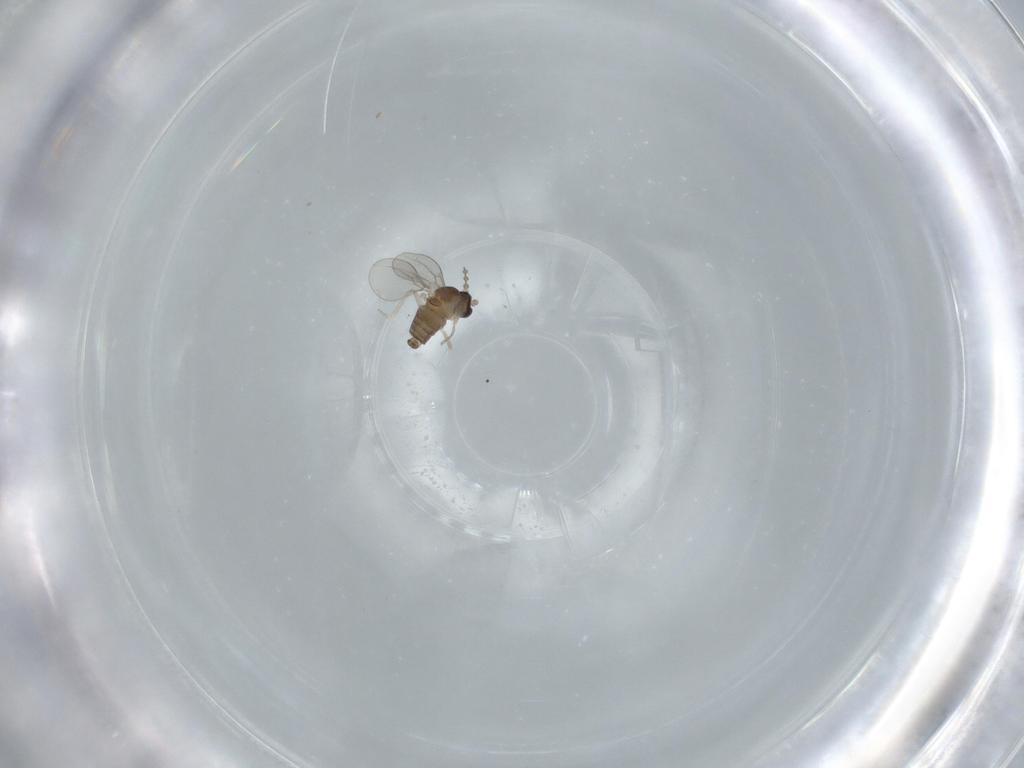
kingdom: Animalia
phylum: Arthropoda
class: Insecta
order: Diptera
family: Cecidomyiidae
